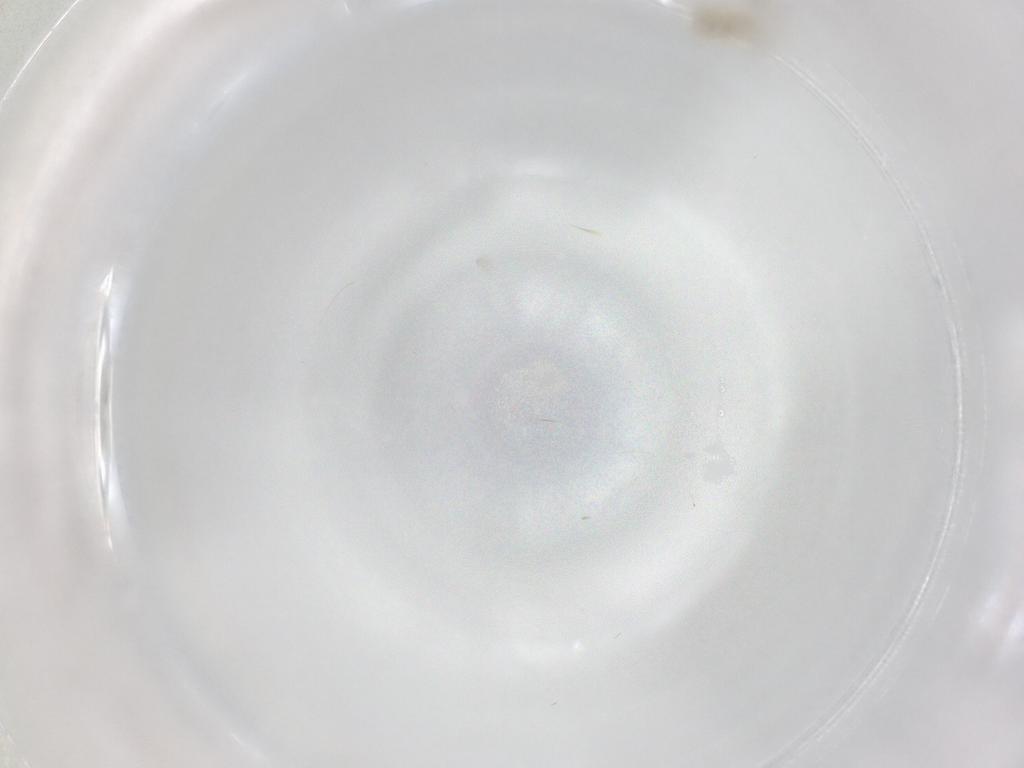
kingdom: Animalia
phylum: Arthropoda
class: Insecta
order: Diptera
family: Chironomidae
